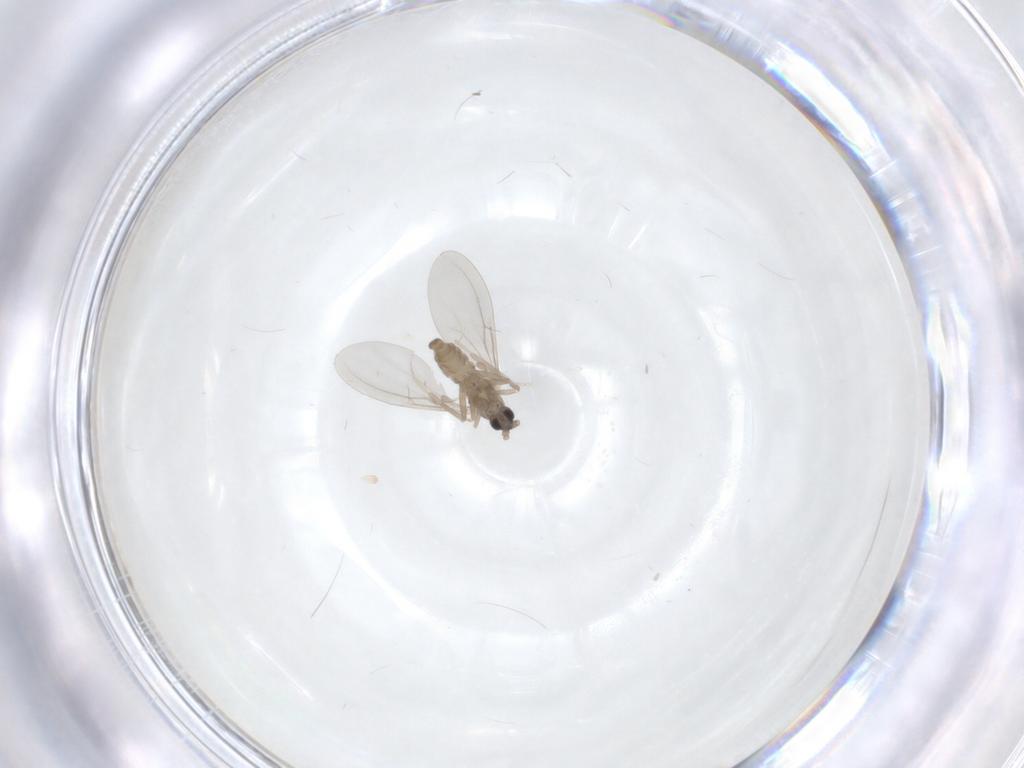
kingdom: Animalia
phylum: Arthropoda
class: Insecta
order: Diptera
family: Cecidomyiidae
